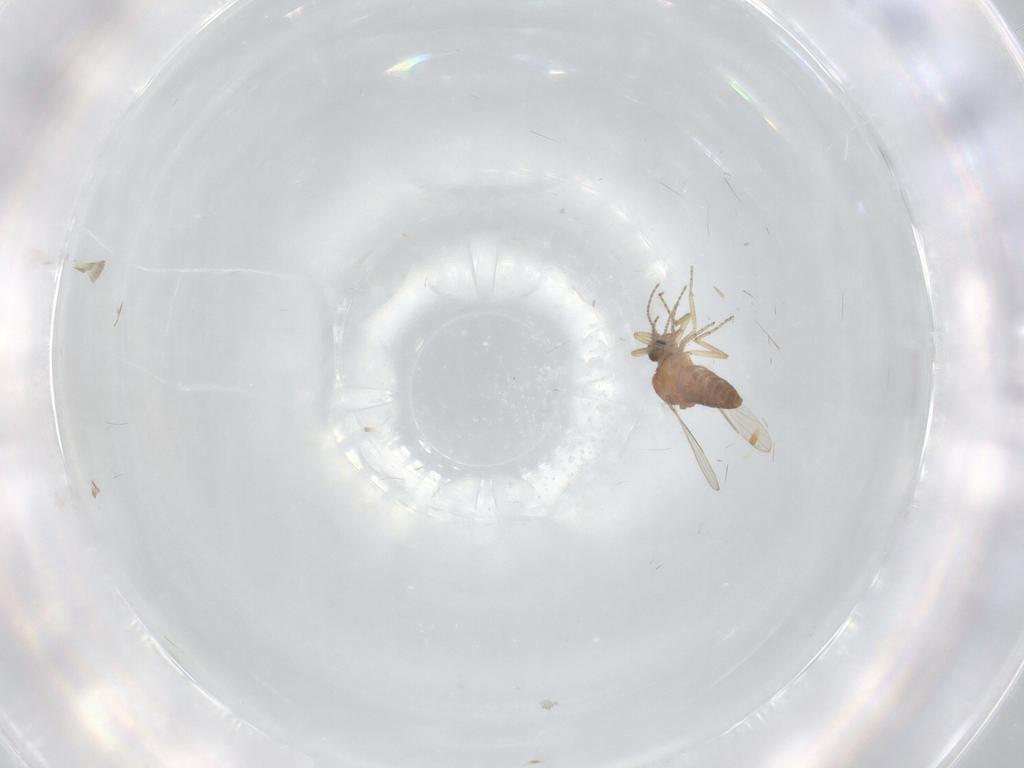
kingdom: Animalia
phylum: Arthropoda
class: Insecta
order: Diptera
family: Ceratopogonidae
